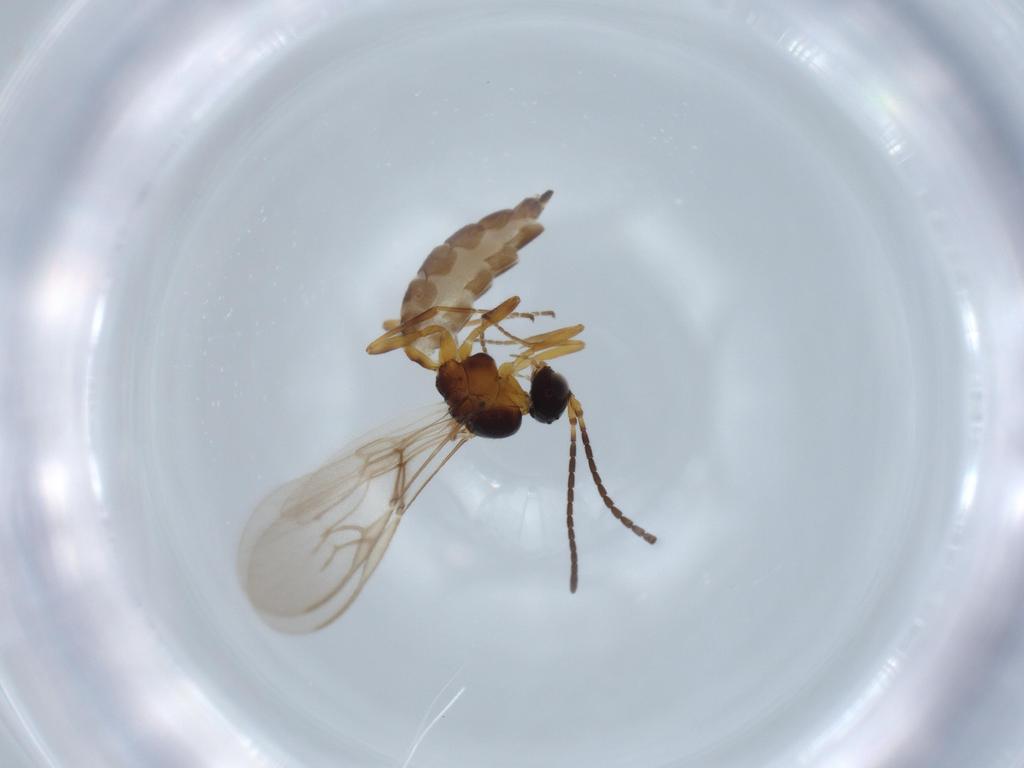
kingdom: Animalia
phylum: Arthropoda
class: Insecta
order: Hymenoptera
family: Braconidae
